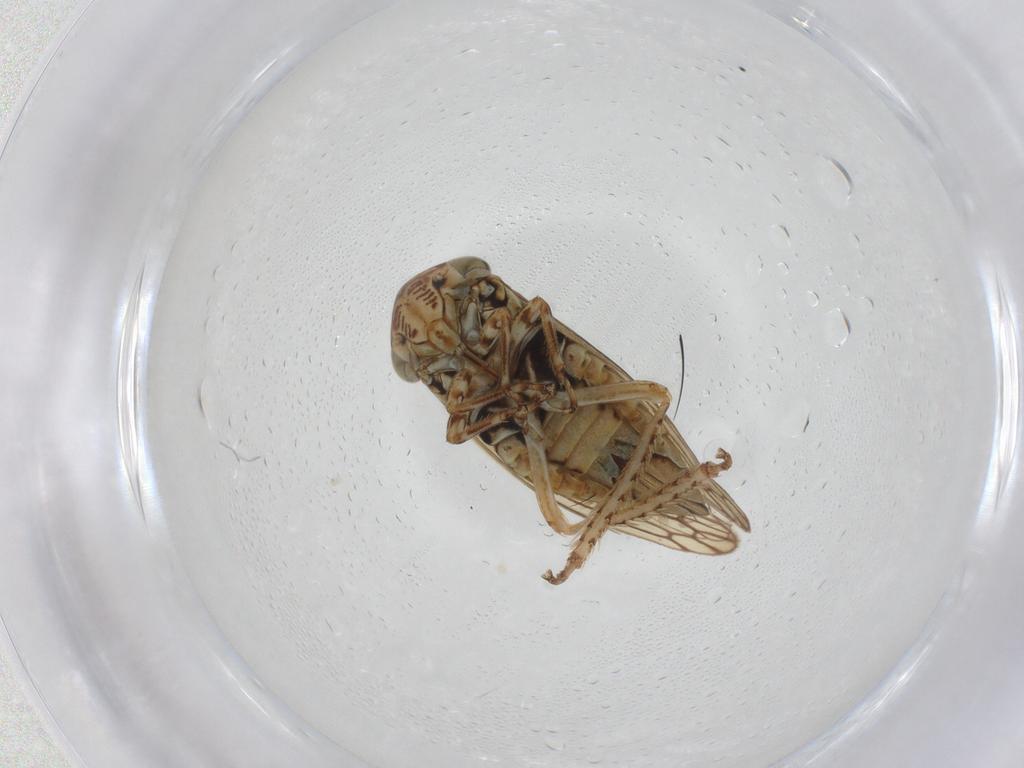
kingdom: Animalia
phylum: Arthropoda
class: Insecta
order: Hemiptera
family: Cicadellidae
